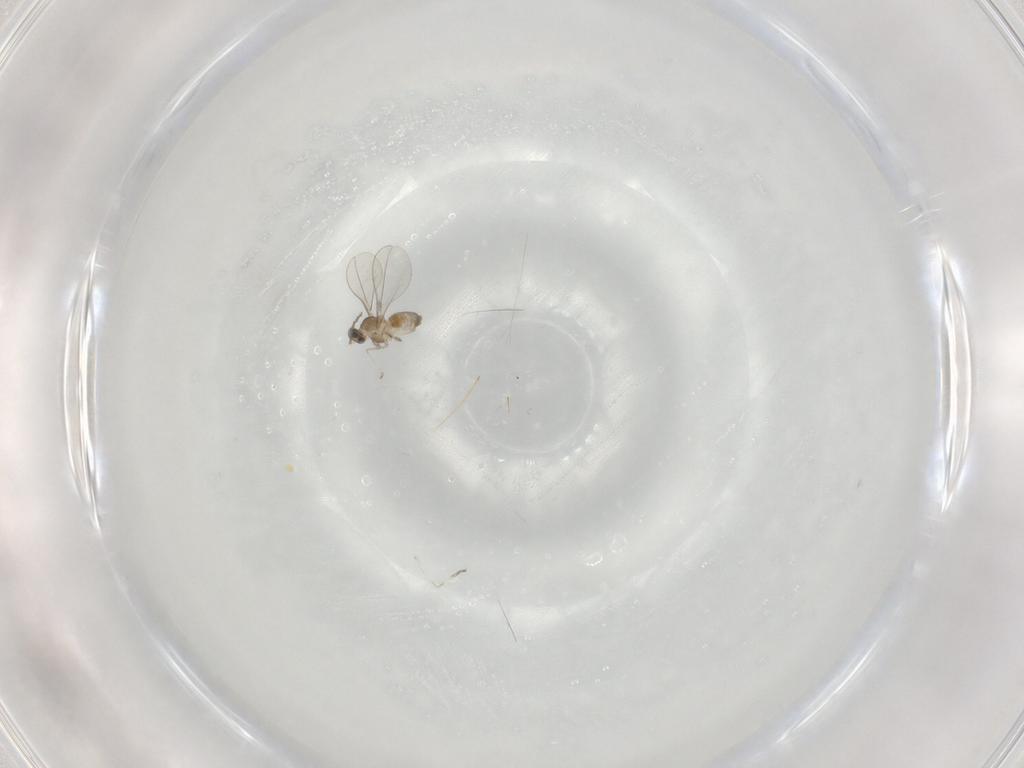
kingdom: Animalia
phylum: Arthropoda
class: Insecta
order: Diptera
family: Cecidomyiidae
